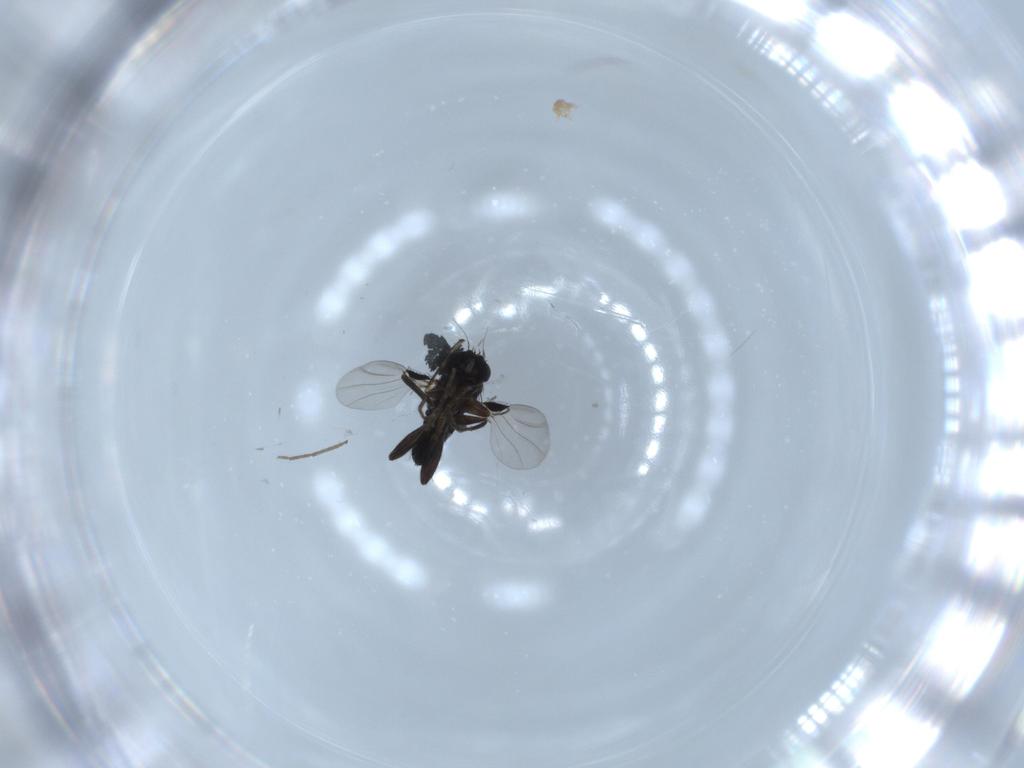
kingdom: Animalia
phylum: Arthropoda
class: Insecta
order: Diptera
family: Phoridae
